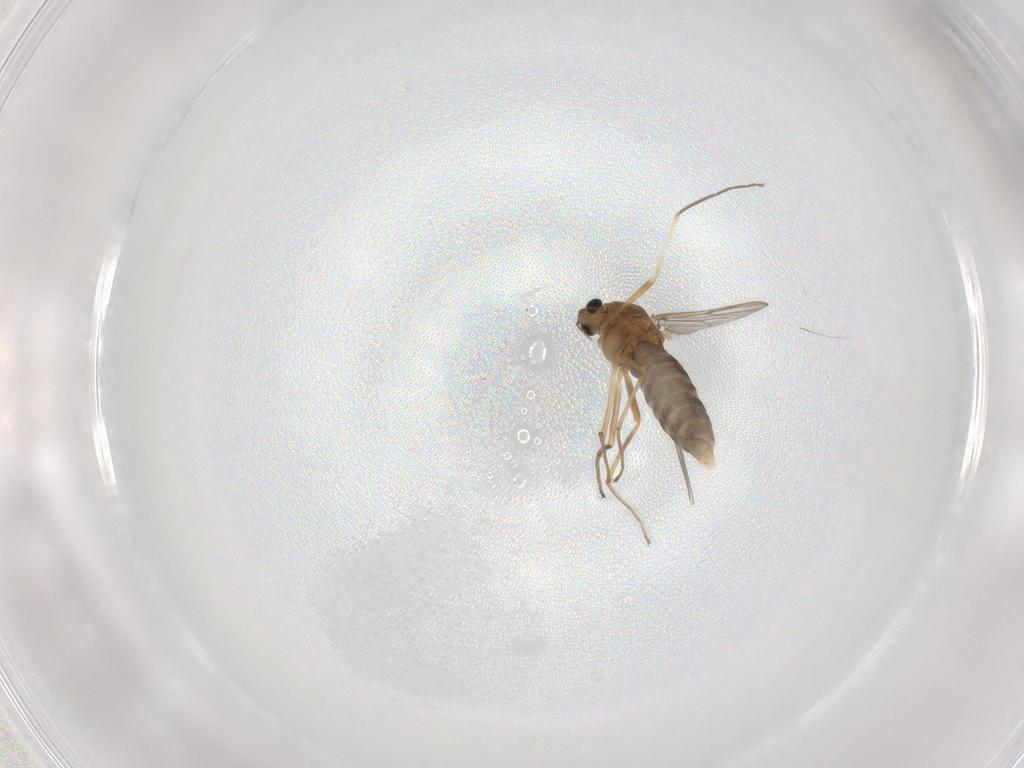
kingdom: Animalia
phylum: Arthropoda
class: Insecta
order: Diptera
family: Chironomidae
